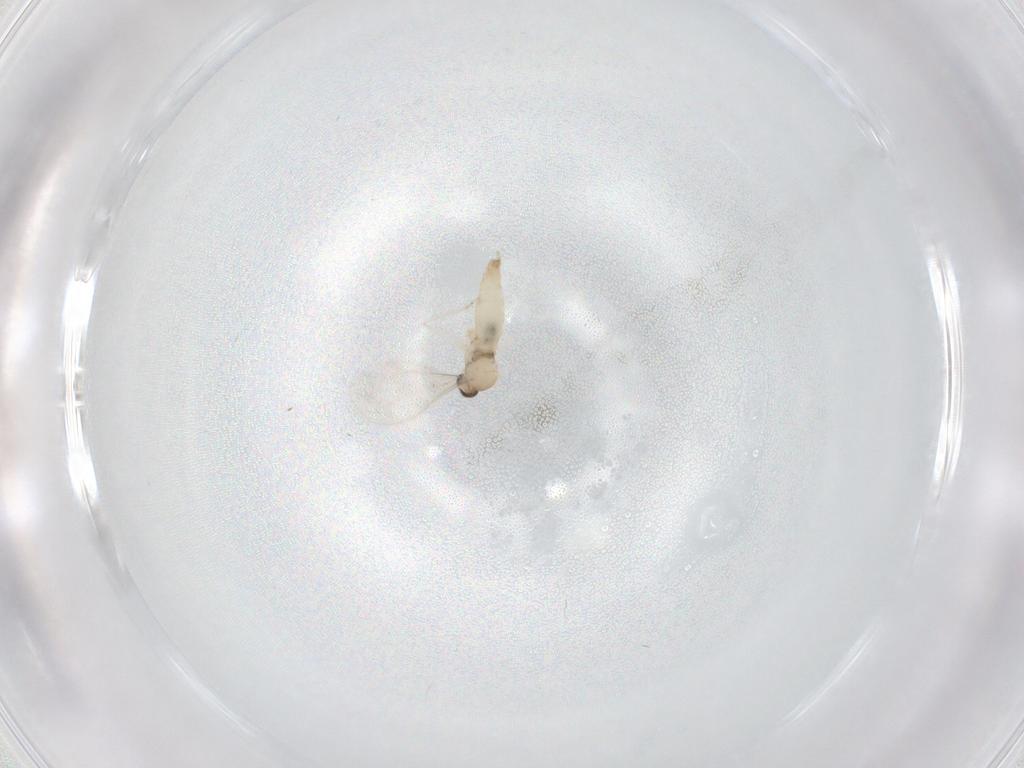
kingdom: Animalia
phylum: Arthropoda
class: Insecta
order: Diptera
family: Cecidomyiidae
